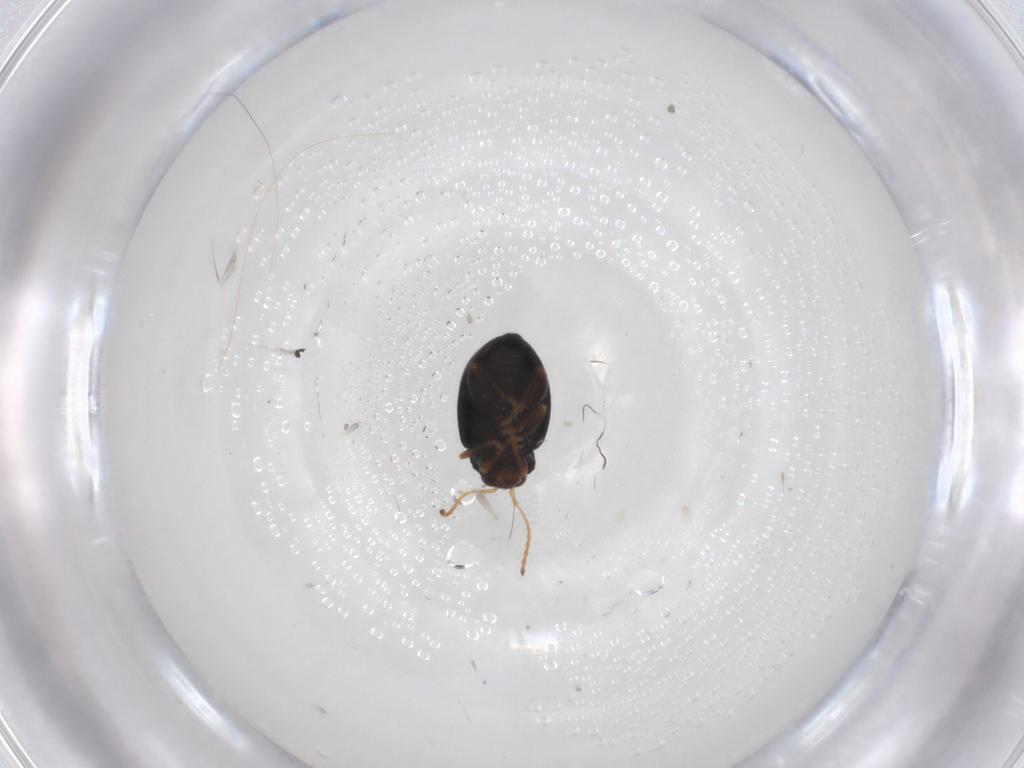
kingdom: Animalia
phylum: Arthropoda
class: Insecta
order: Coleoptera
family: Chrysomelidae
